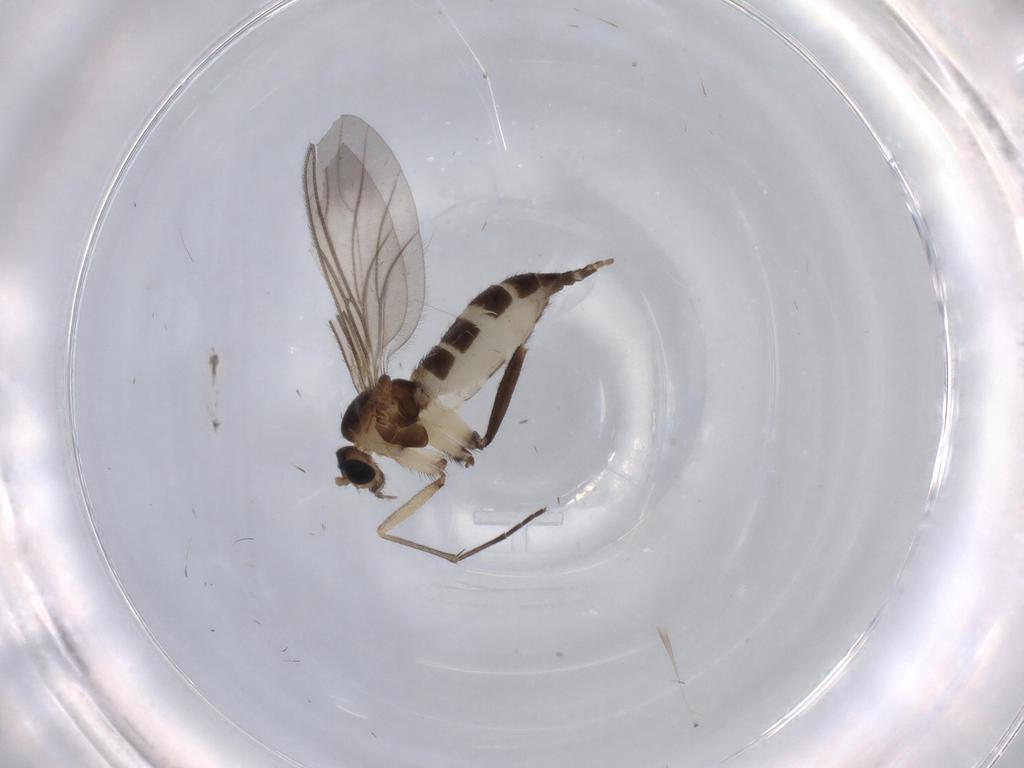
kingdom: Animalia
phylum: Arthropoda
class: Insecta
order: Diptera
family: Sciaridae
